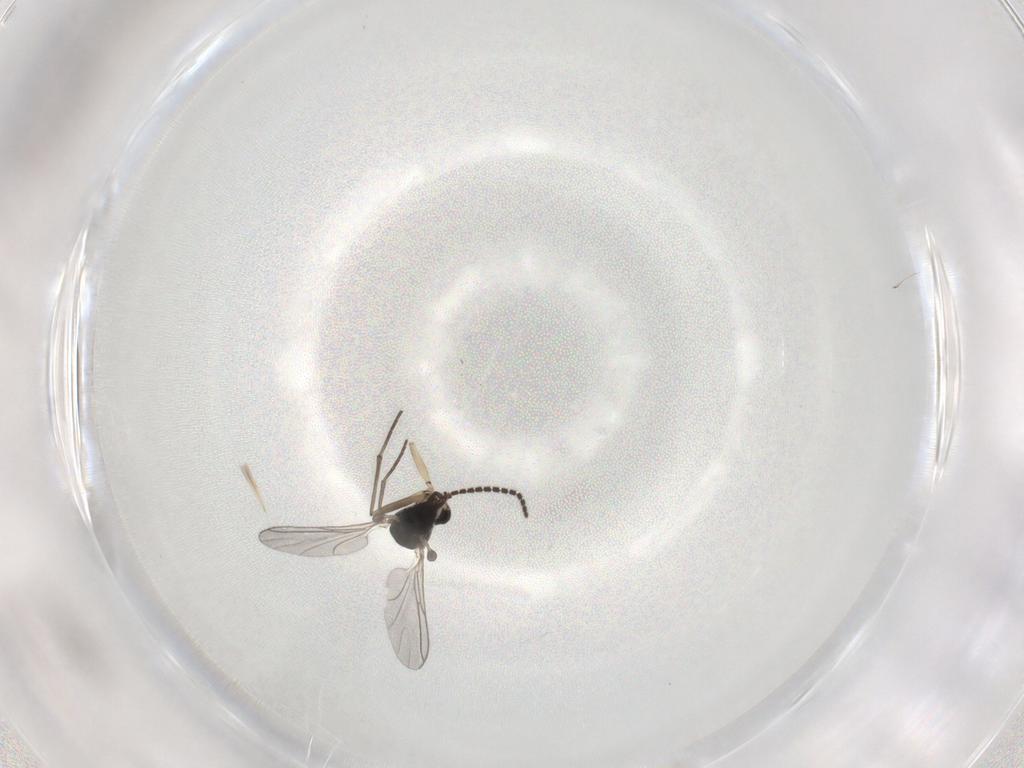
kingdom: Animalia
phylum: Arthropoda
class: Insecta
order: Diptera
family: Sciaridae
